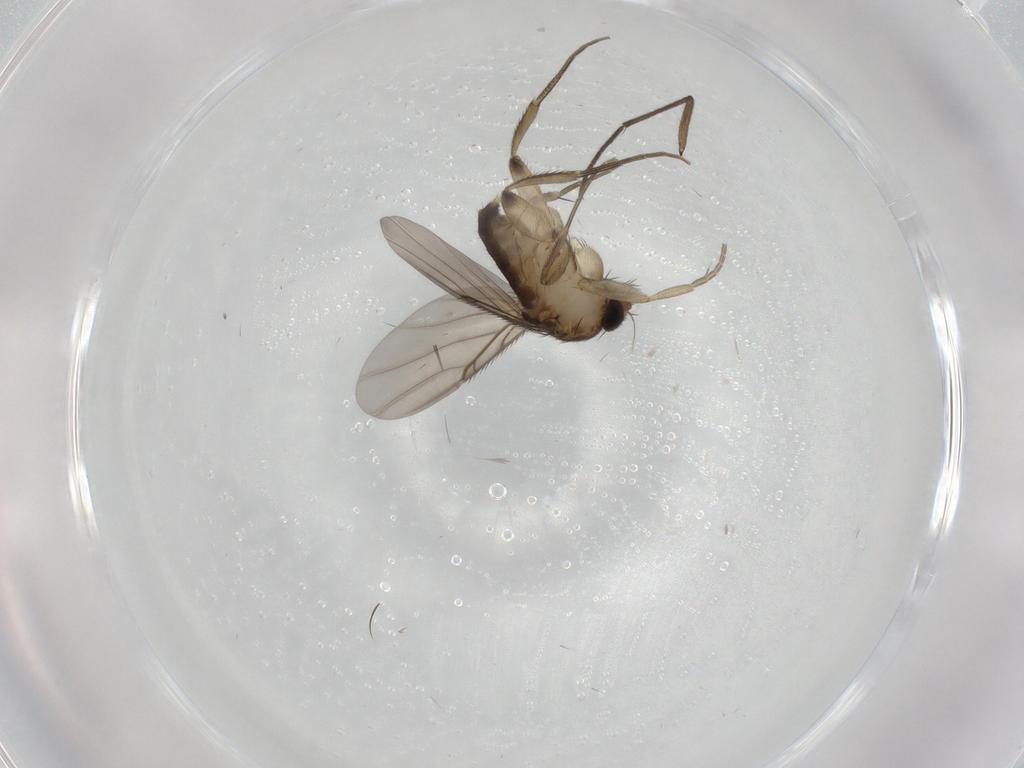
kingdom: Animalia
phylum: Arthropoda
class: Insecta
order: Diptera
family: Phoridae
